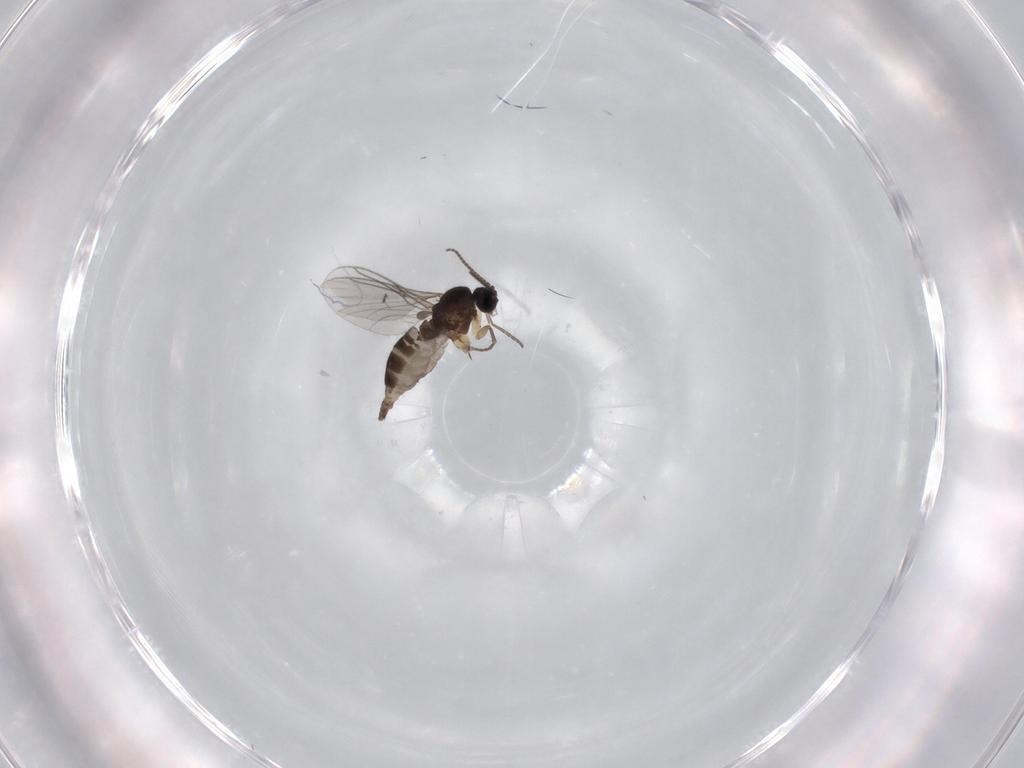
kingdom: Animalia
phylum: Arthropoda
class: Insecta
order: Diptera
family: Sciaridae
